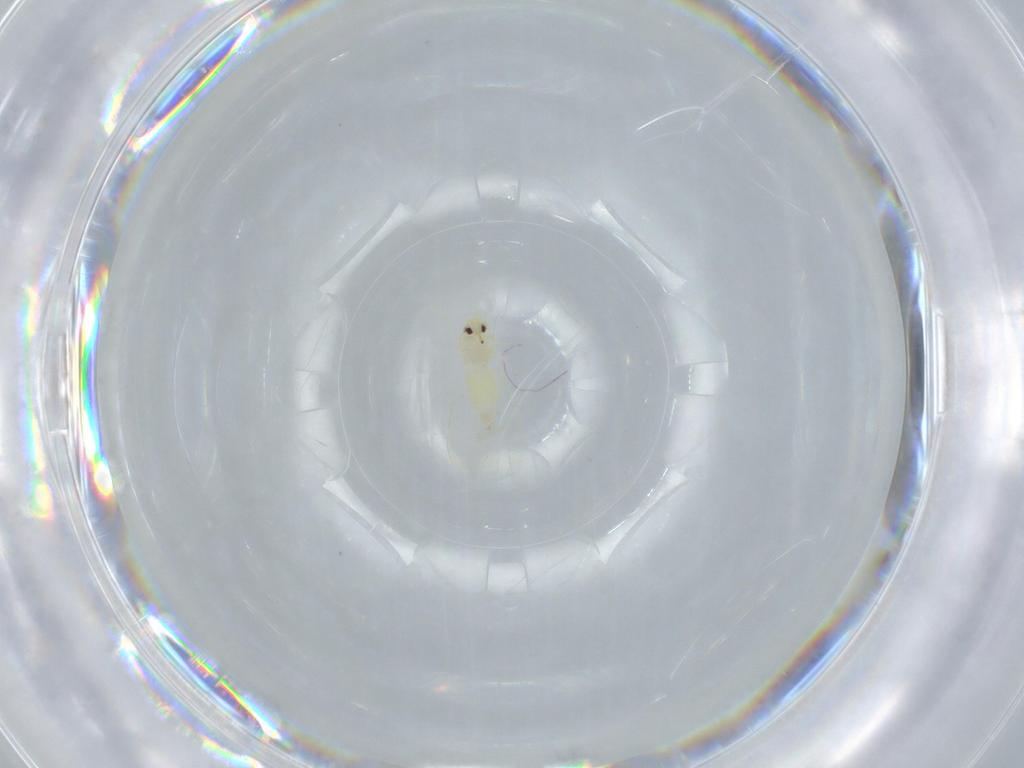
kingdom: Animalia
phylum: Arthropoda
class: Insecta
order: Hemiptera
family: Aleyrodidae
